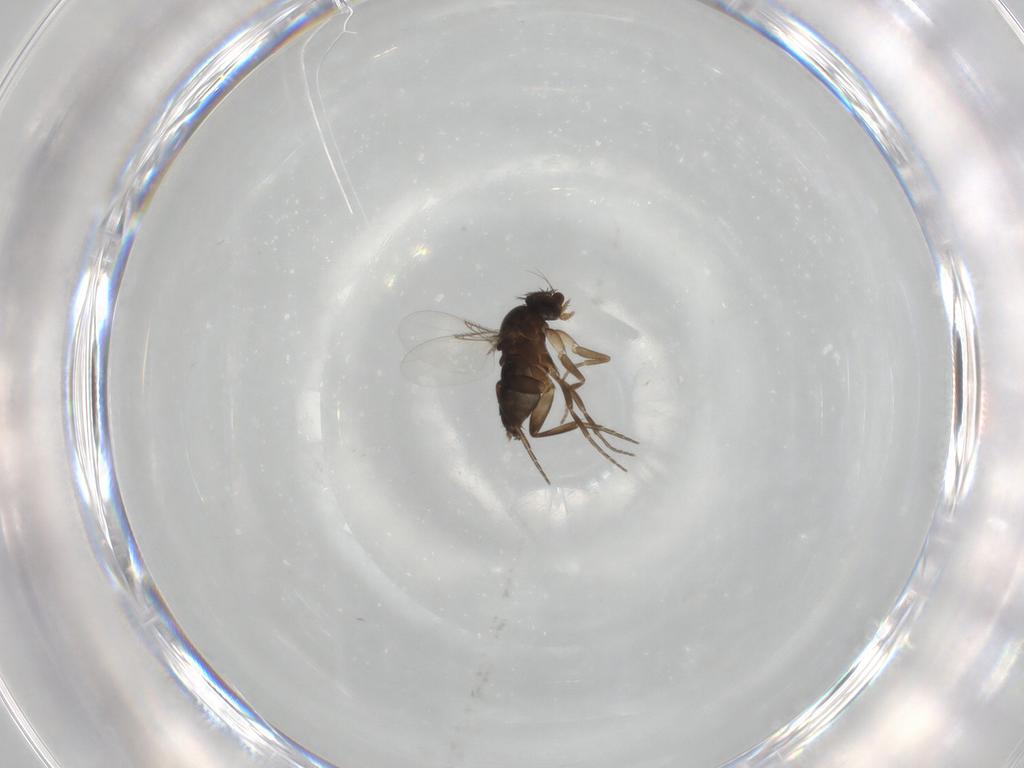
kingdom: Animalia
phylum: Arthropoda
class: Insecta
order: Diptera
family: Phoridae
